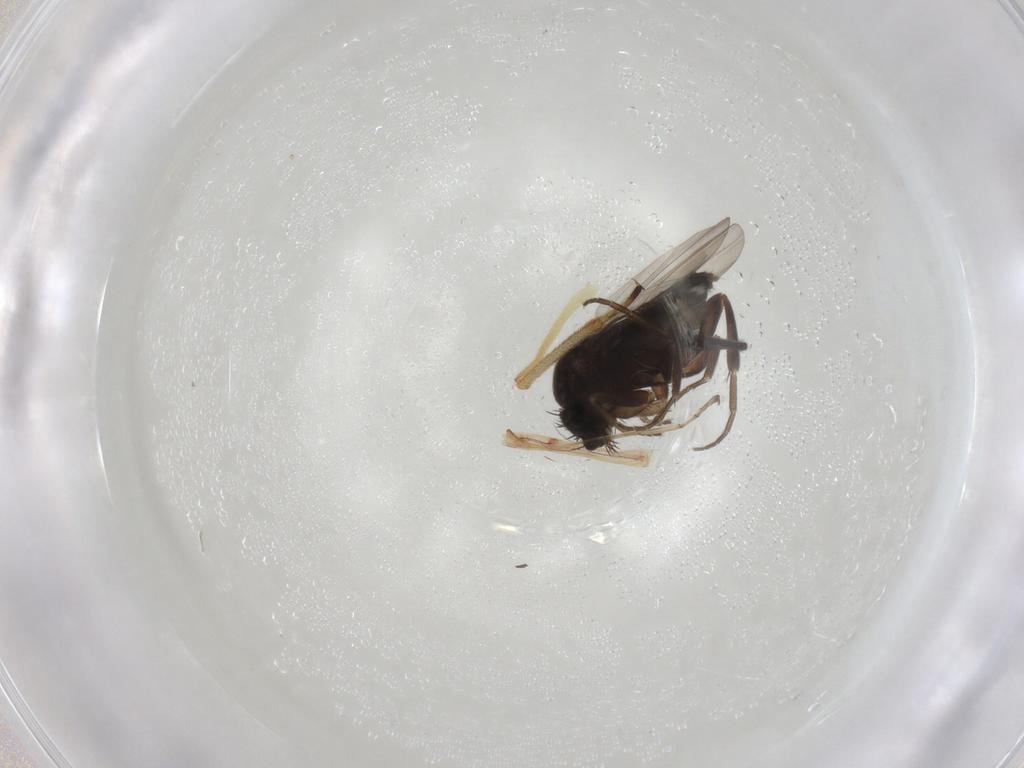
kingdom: Animalia
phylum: Arthropoda
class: Insecta
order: Diptera
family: Phoridae
